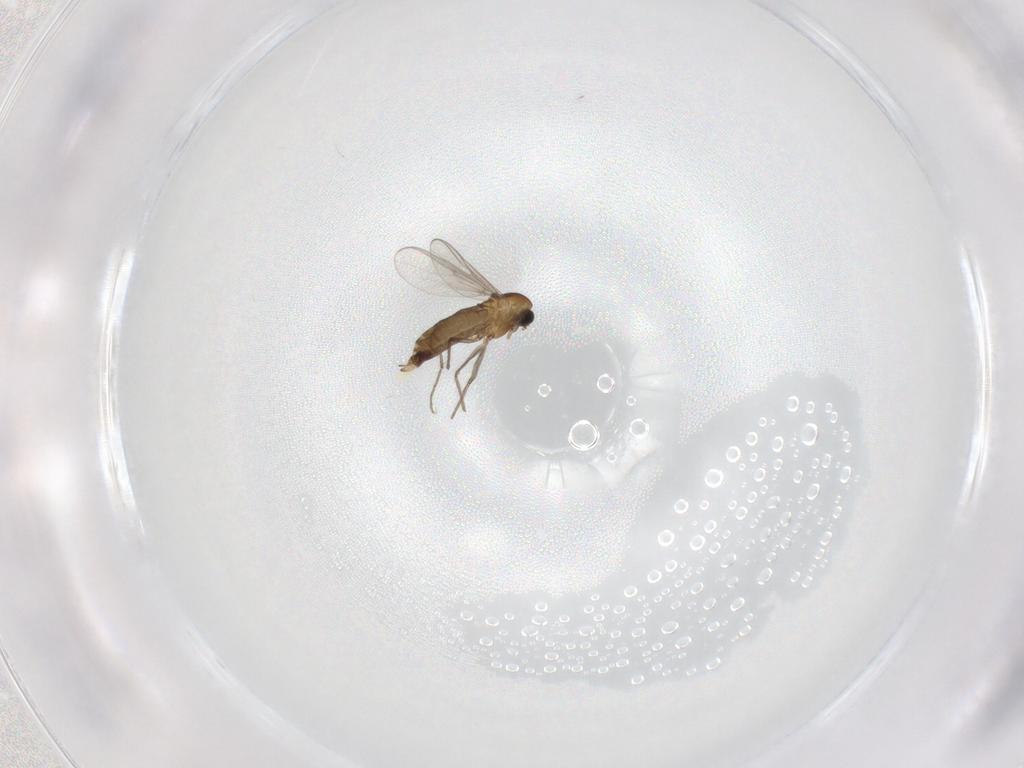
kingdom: Animalia
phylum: Arthropoda
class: Insecta
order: Diptera
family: Chironomidae
